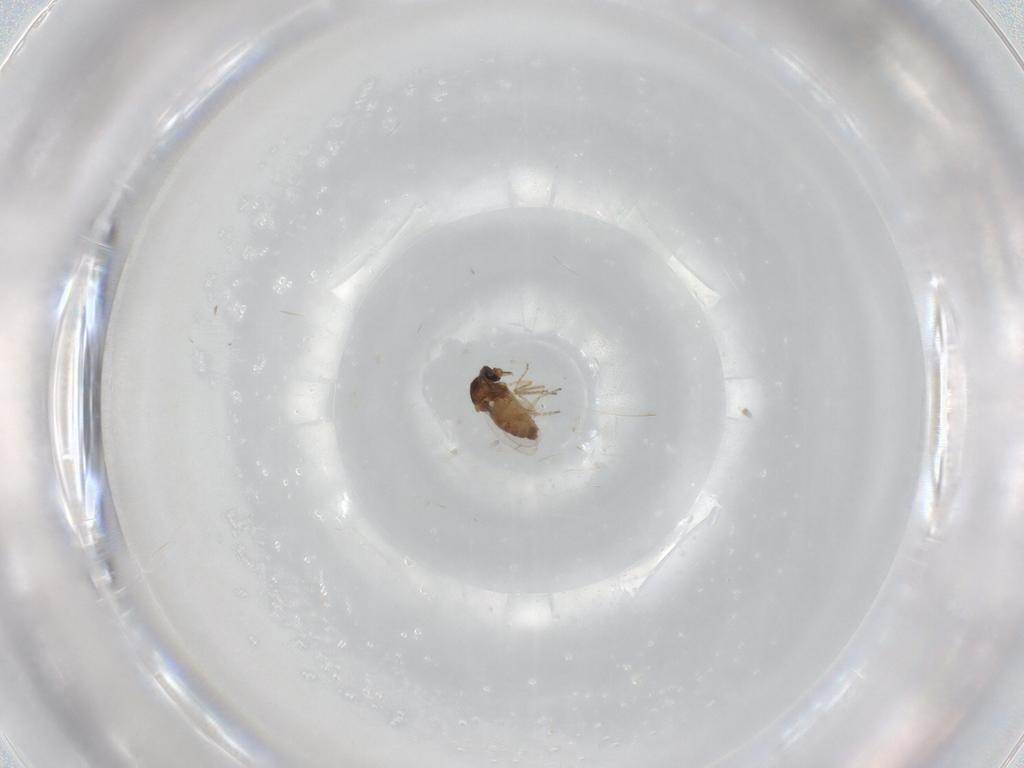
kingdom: Animalia
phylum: Arthropoda
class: Insecta
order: Diptera
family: Ceratopogonidae
